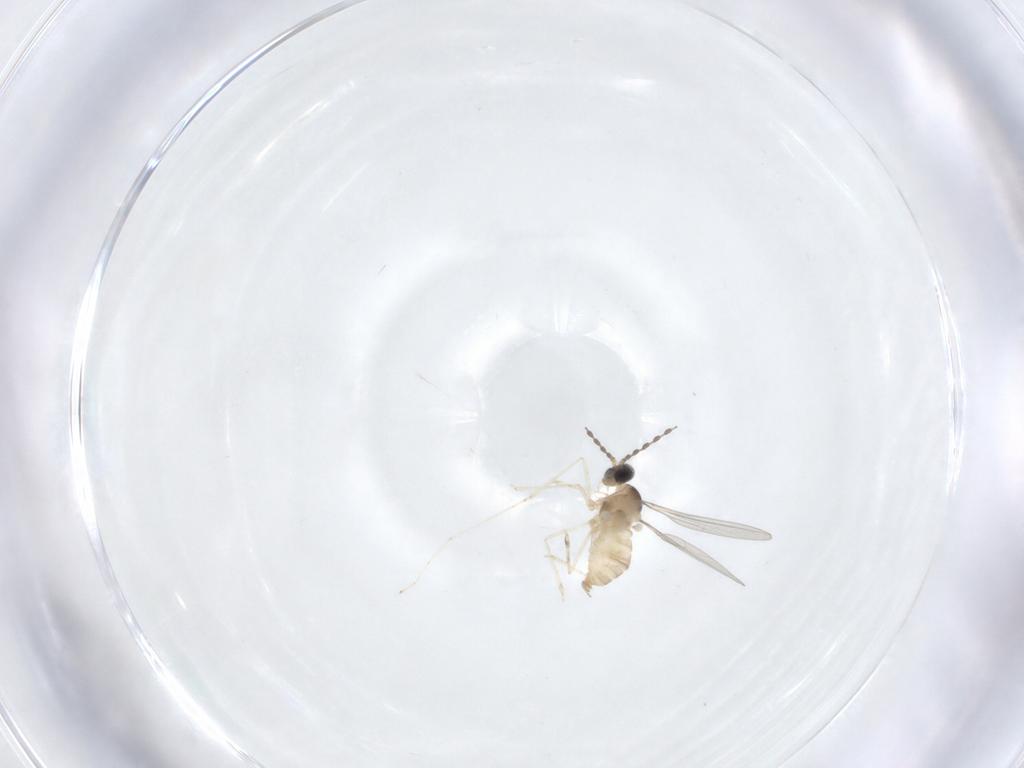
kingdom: Animalia
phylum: Arthropoda
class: Insecta
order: Diptera
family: Cecidomyiidae
